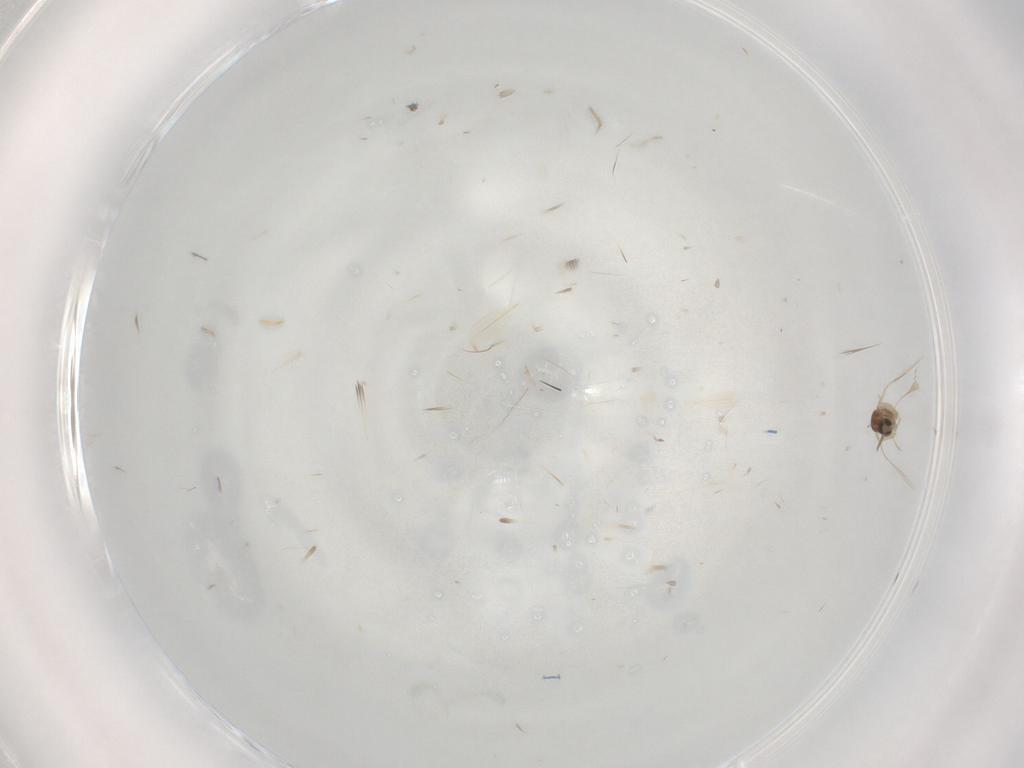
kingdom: Animalia
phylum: Arthropoda
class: Insecta
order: Diptera
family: Cecidomyiidae
